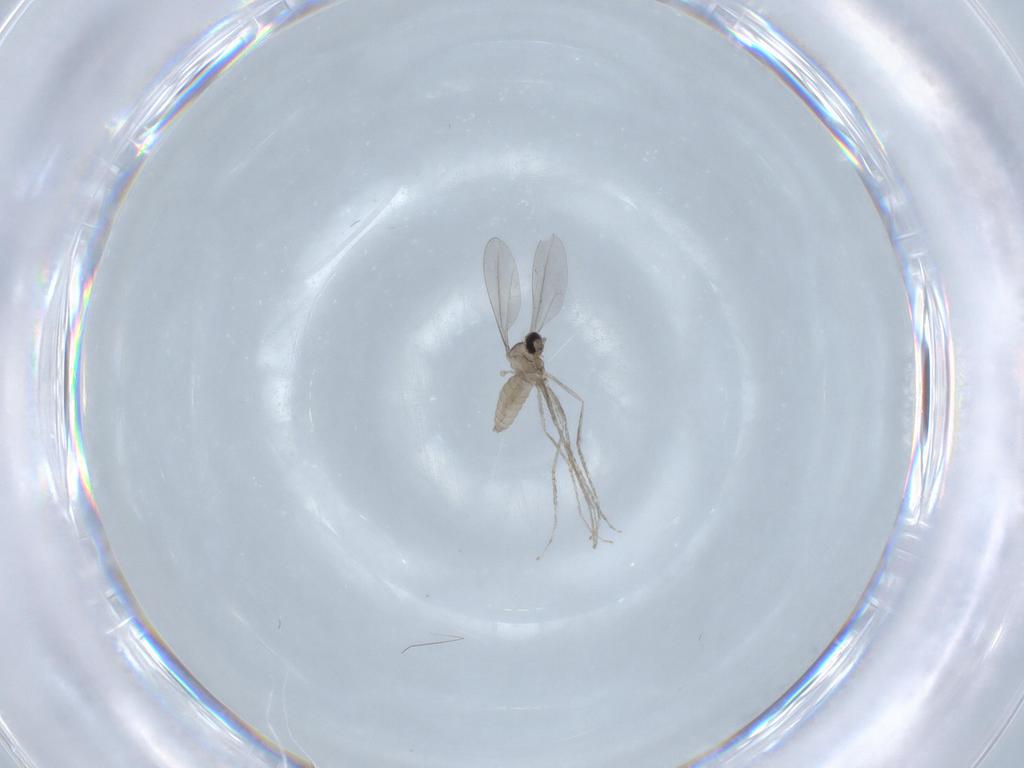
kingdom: Animalia
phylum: Arthropoda
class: Insecta
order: Diptera
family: Cecidomyiidae
